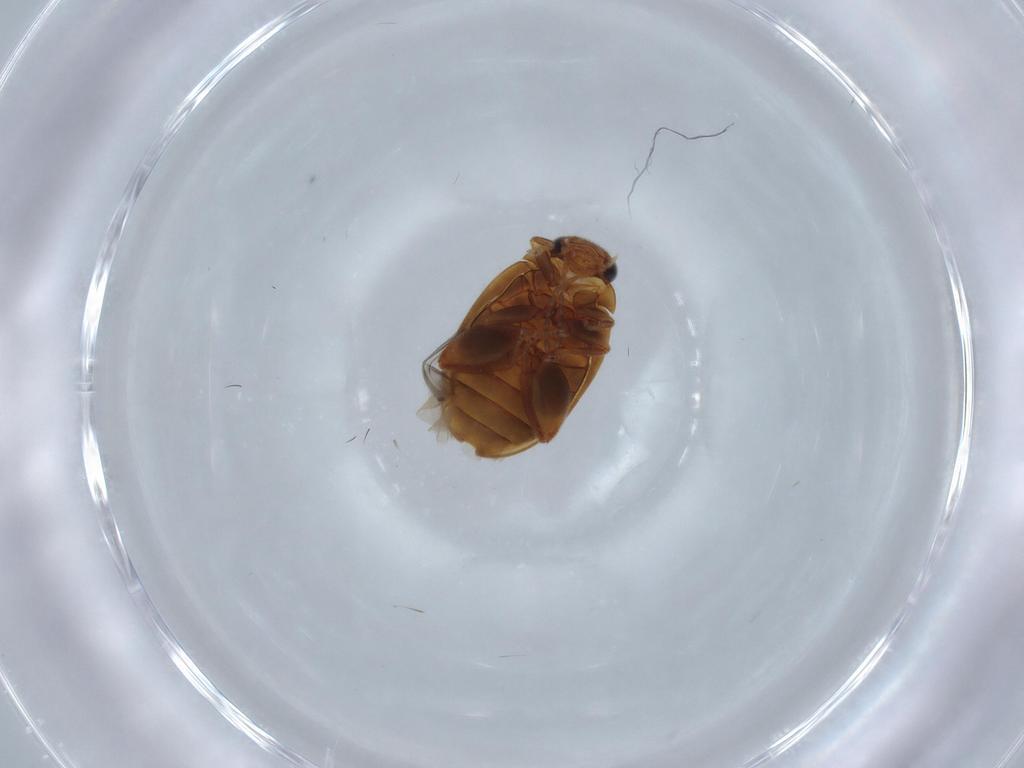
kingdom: Animalia
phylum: Arthropoda
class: Insecta
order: Coleoptera
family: Scirtidae
